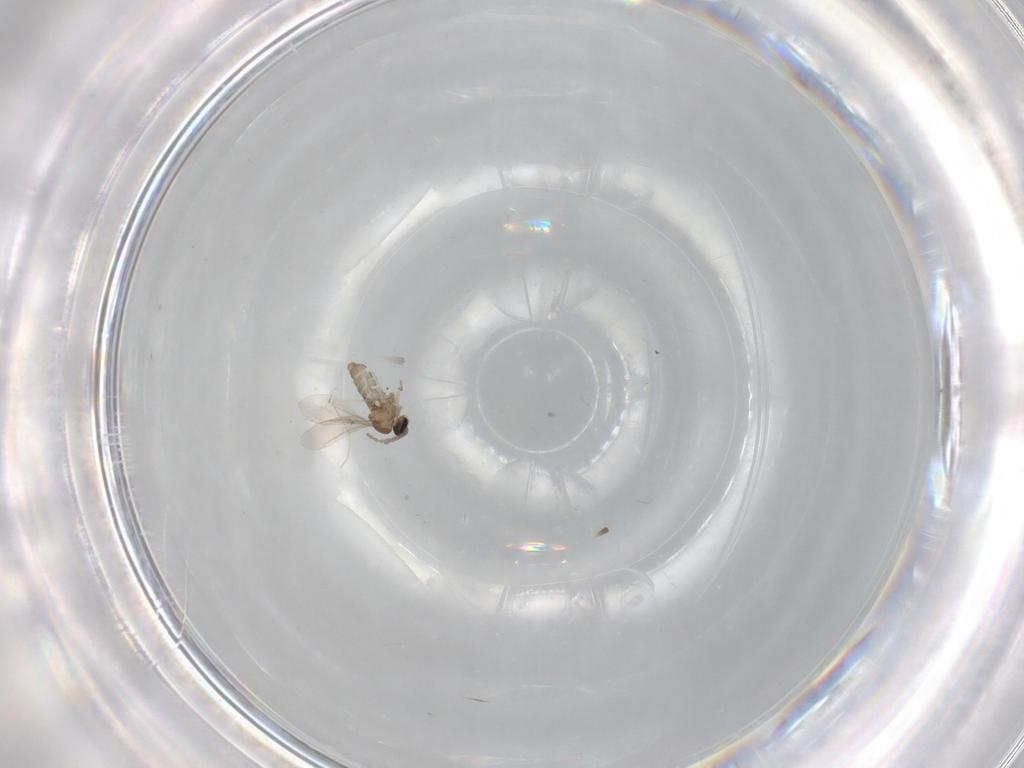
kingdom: Animalia
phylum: Arthropoda
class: Insecta
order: Diptera
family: Cecidomyiidae
